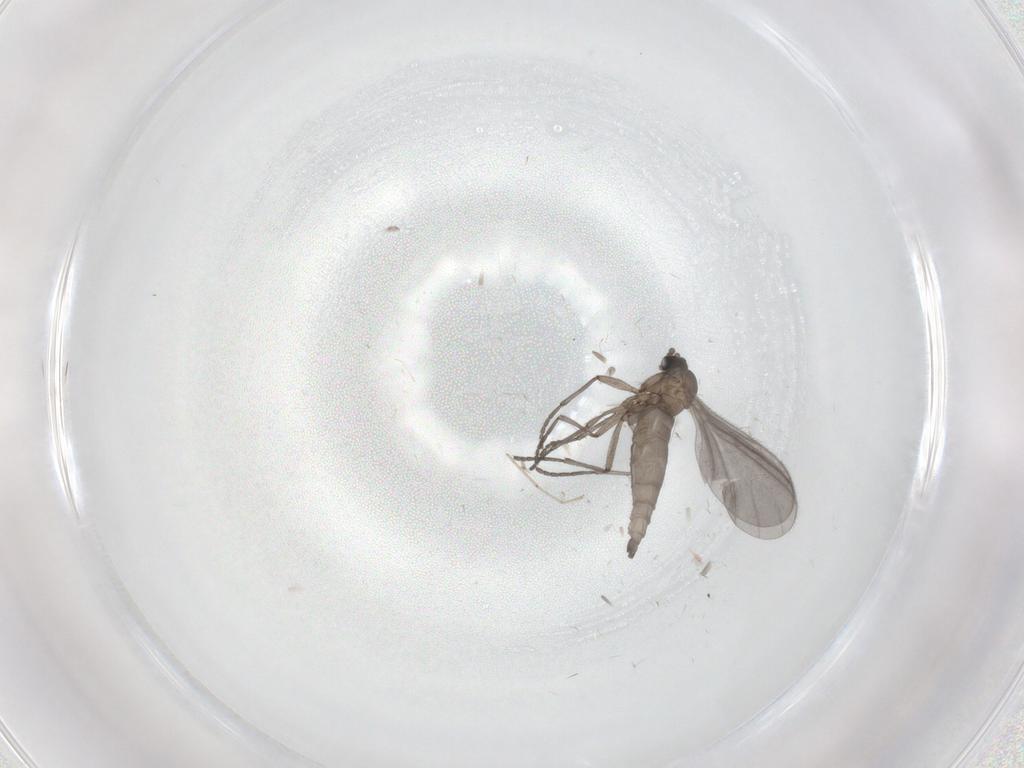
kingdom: Animalia
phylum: Arthropoda
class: Insecta
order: Diptera
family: Sciaridae
